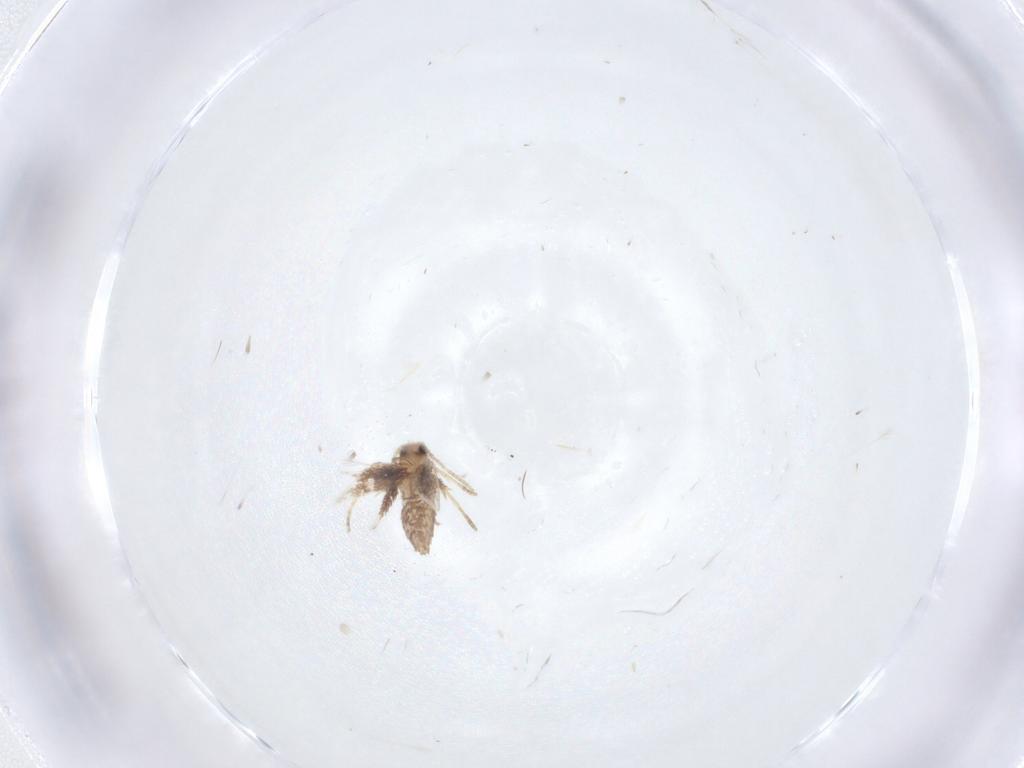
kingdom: Animalia
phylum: Arthropoda
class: Insecta
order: Lepidoptera
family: Nepticulidae
